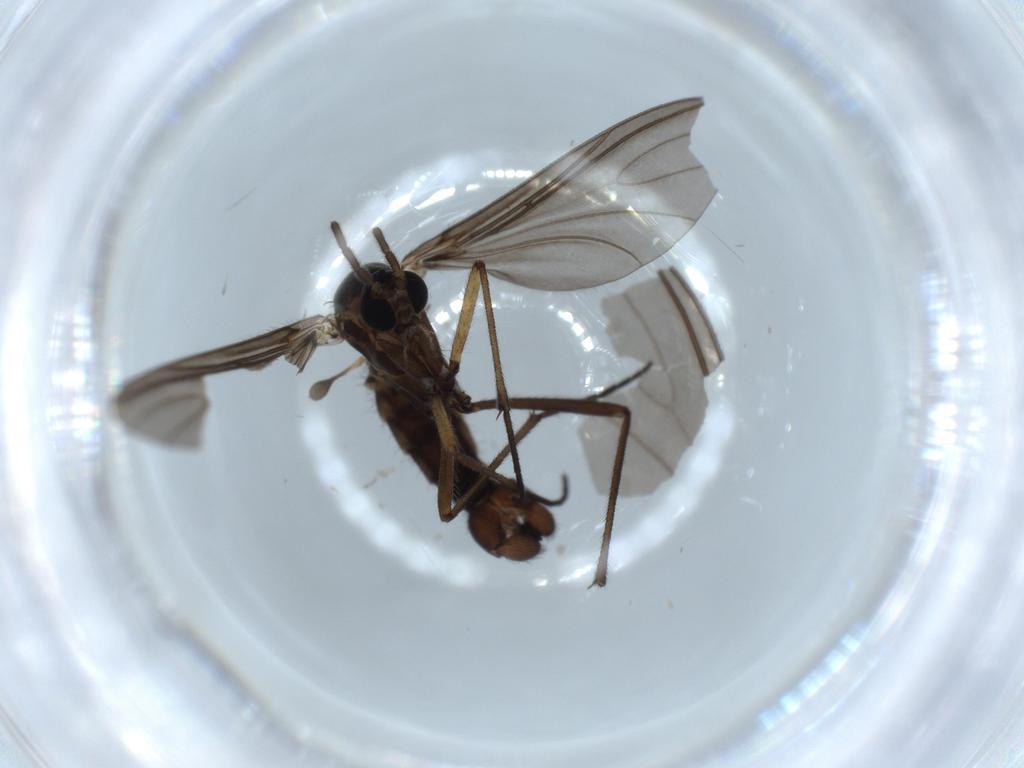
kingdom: Animalia
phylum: Arthropoda
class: Insecta
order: Diptera
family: Sciaridae
